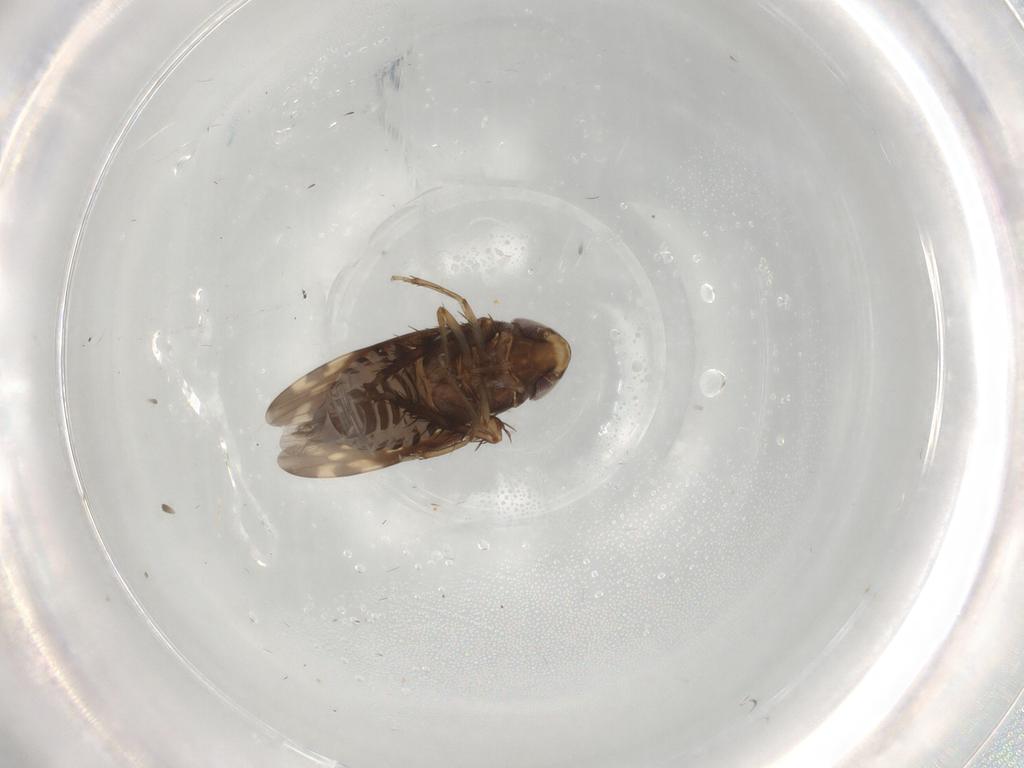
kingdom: Animalia
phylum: Arthropoda
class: Insecta
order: Hemiptera
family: Cicadellidae
